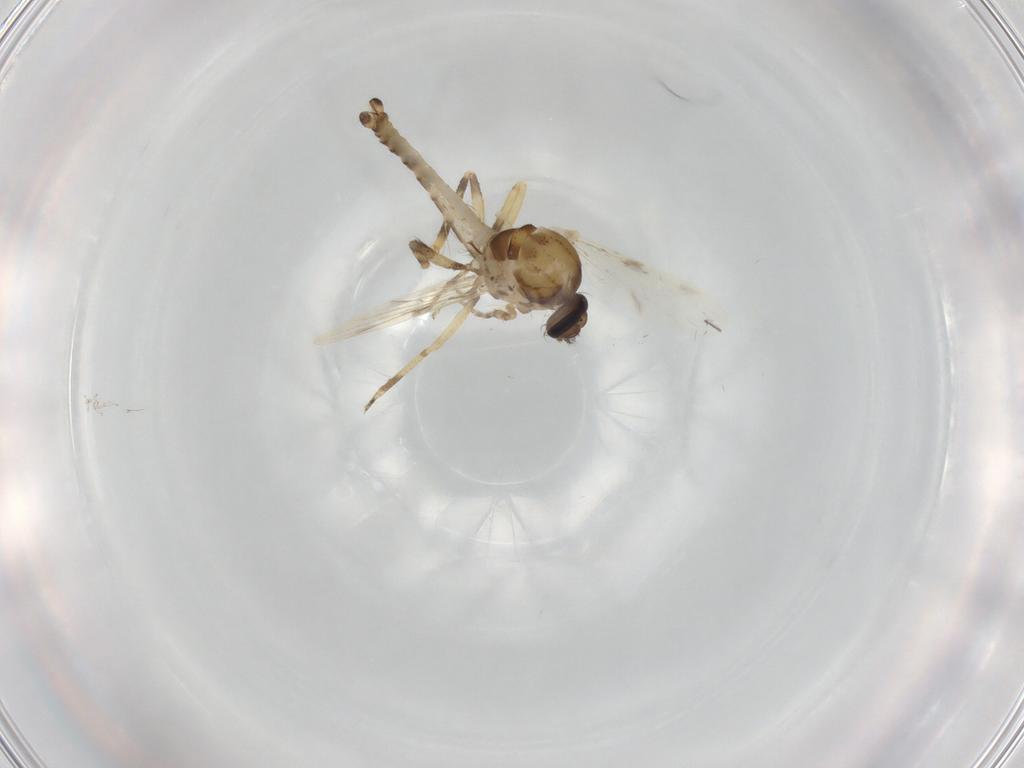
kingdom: Animalia
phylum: Arthropoda
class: Insecta
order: Diptera
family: Ceratopogonidae
